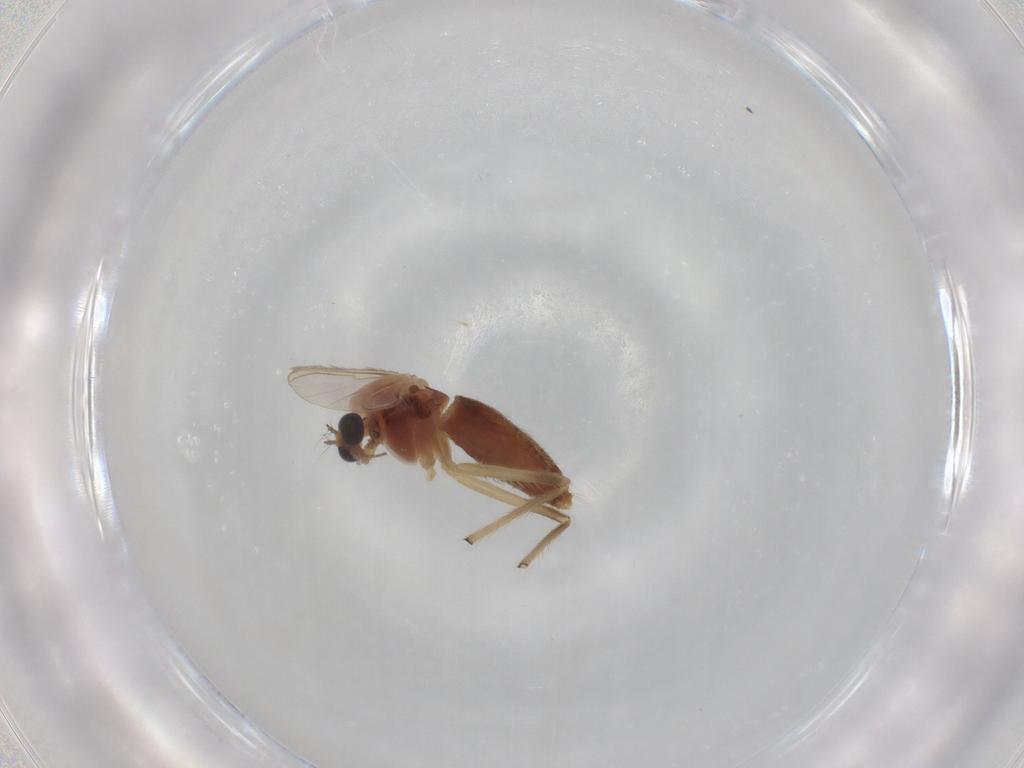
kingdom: Animalia
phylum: Arthropoda
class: Insecta
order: Diptera
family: Chironomidae
